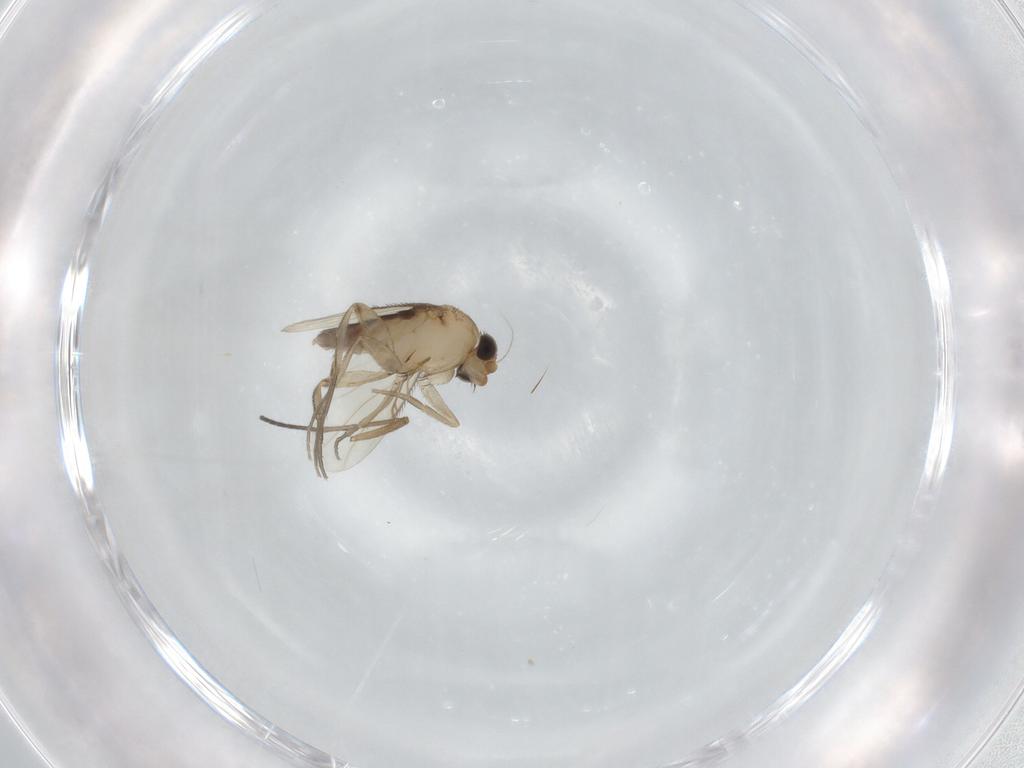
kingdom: Animalia
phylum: Arthropoda
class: Insecta
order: Diptera
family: Phoridae
